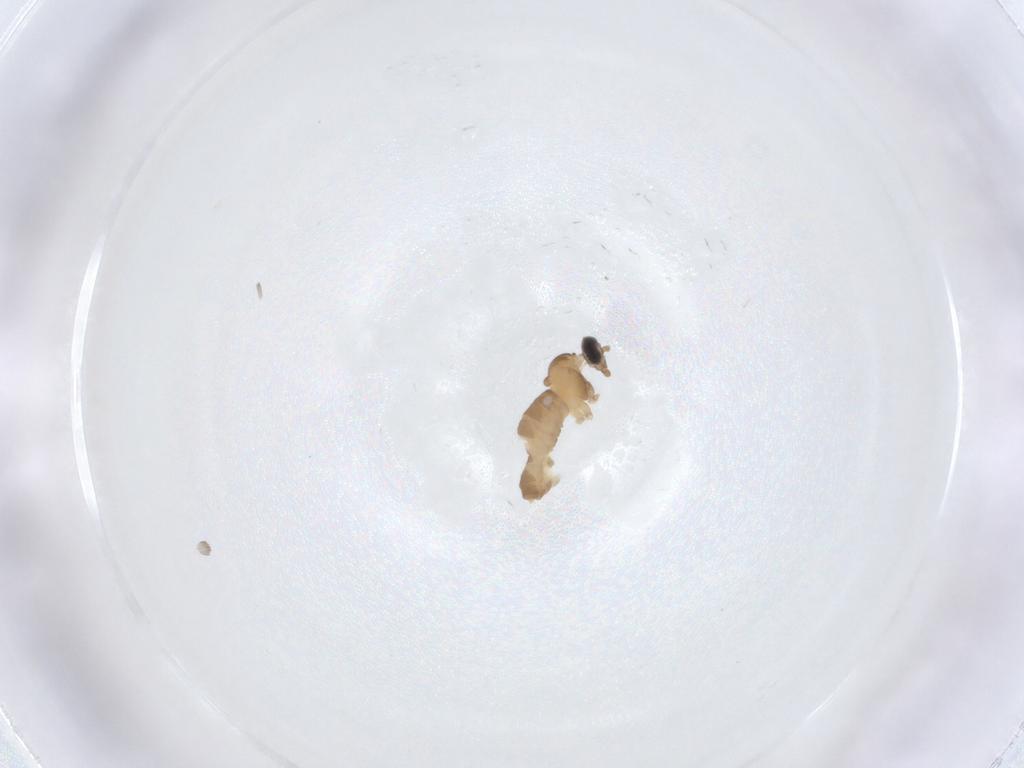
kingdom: Animalia
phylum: Arthropoda
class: Insecta
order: Diptera
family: Cecidomyiidae
